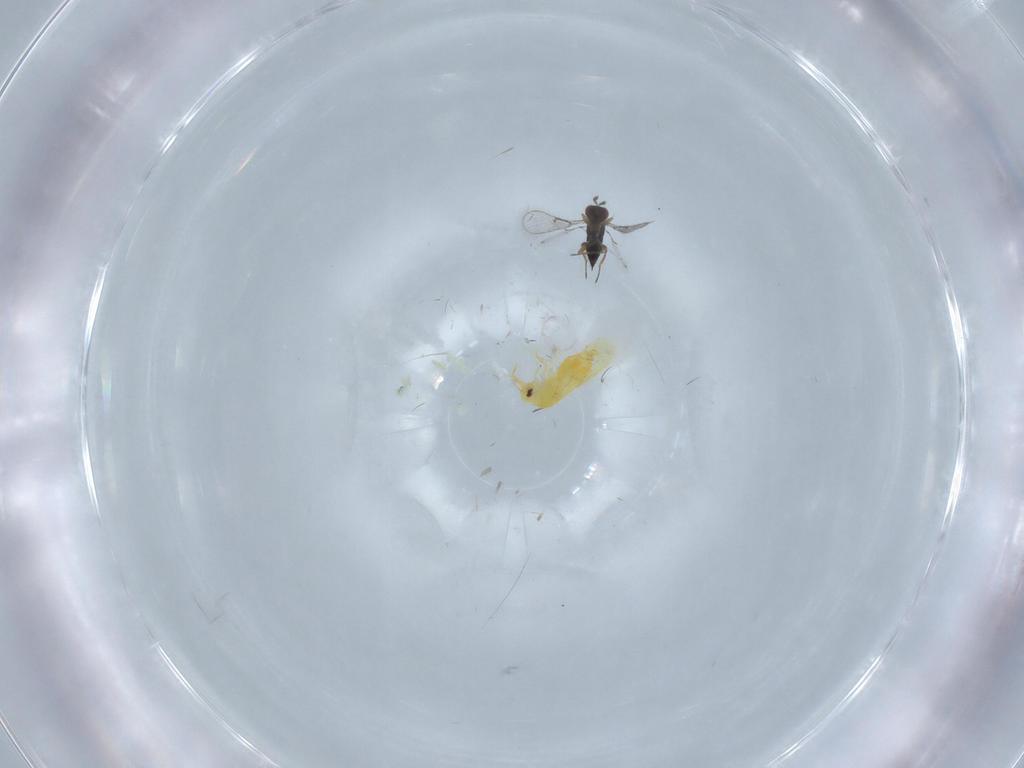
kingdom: Animalia
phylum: Arthropoda
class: Insecta
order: Hymenoptera
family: Trichogrammatidae
